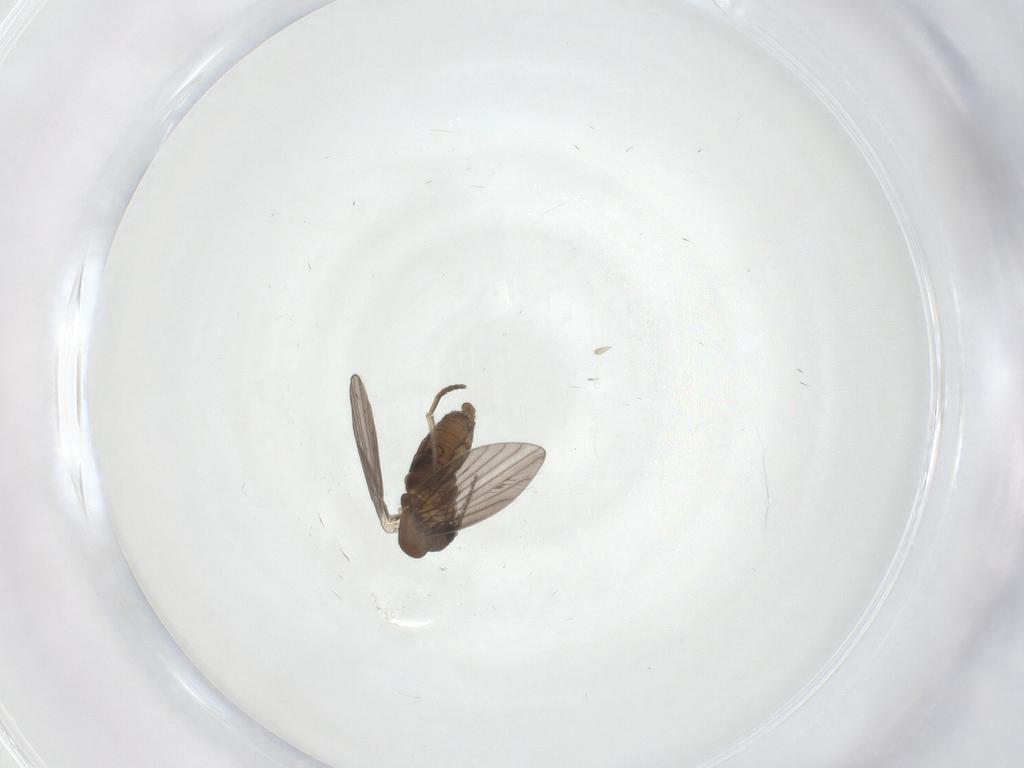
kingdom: Animalia
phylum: Arthropoda
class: Insecta
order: Diptera
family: Psychodidae
